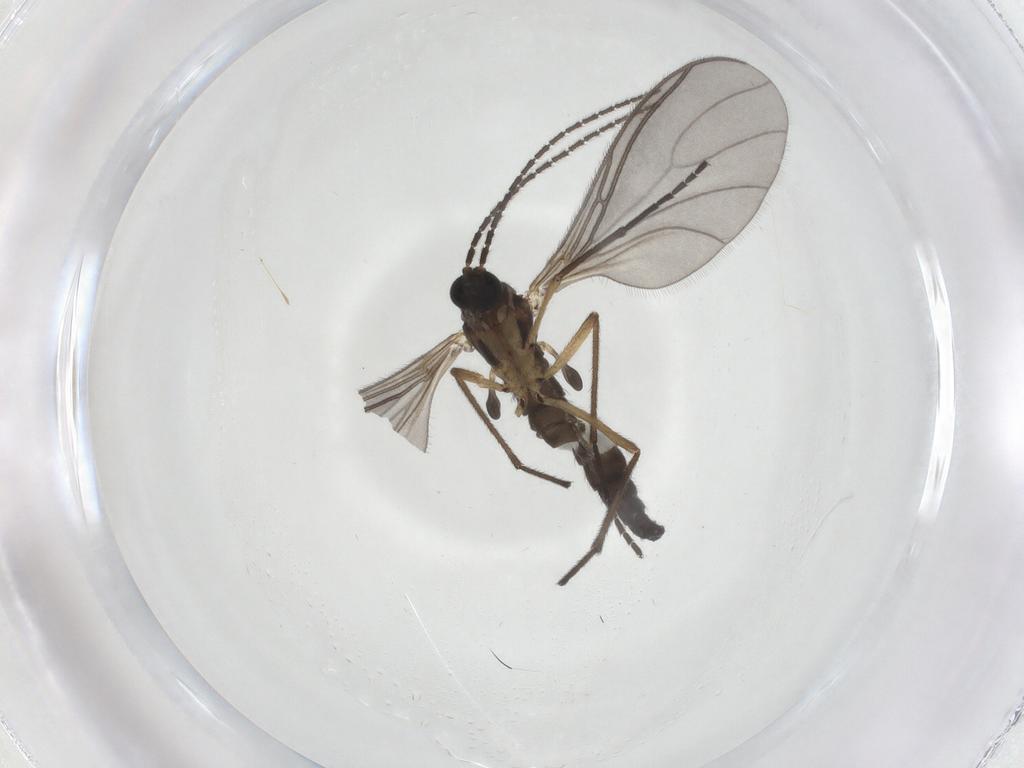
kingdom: Animalia
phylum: Arthropoda
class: Insecta
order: Diptera
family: Sciaridae
